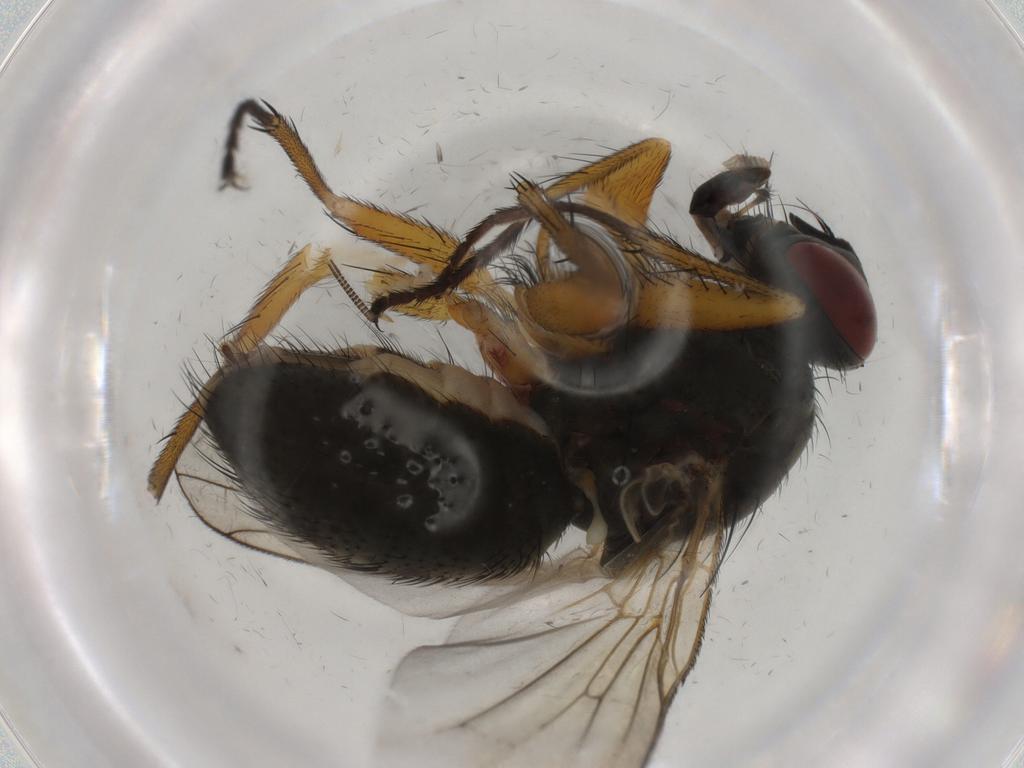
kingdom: Animalia
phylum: Arthropoda
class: Insecta
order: Diptera
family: Muscidae
